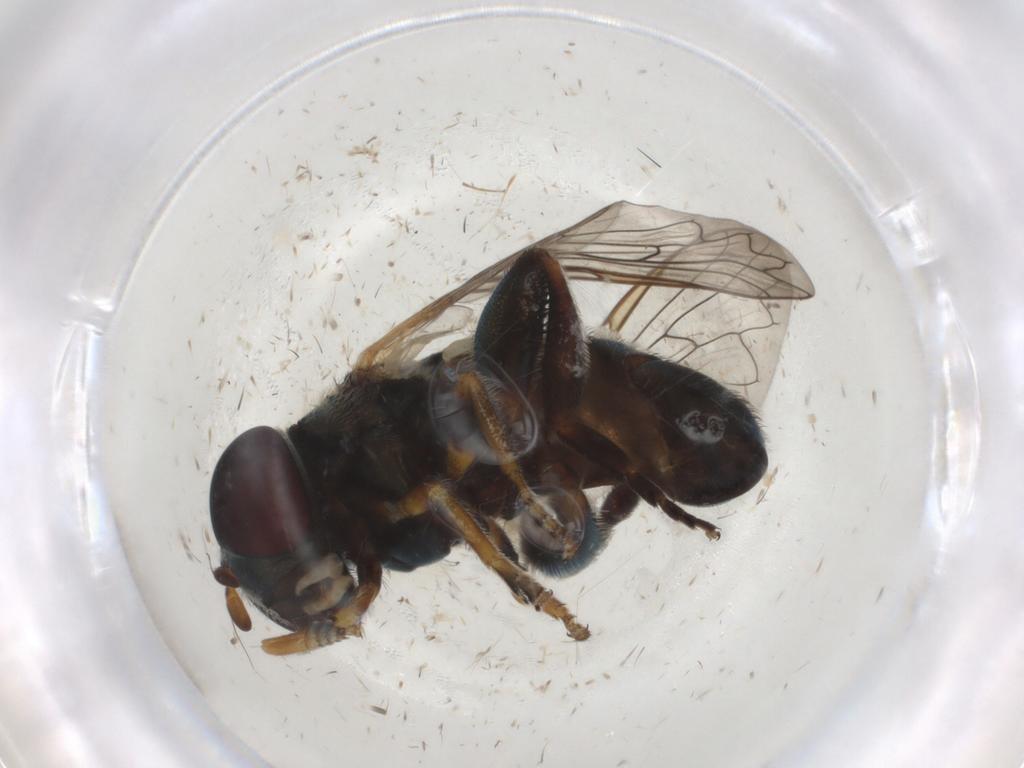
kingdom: Animalia
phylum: Arthropoda
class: Insecta
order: Diptera
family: Syrphidae
